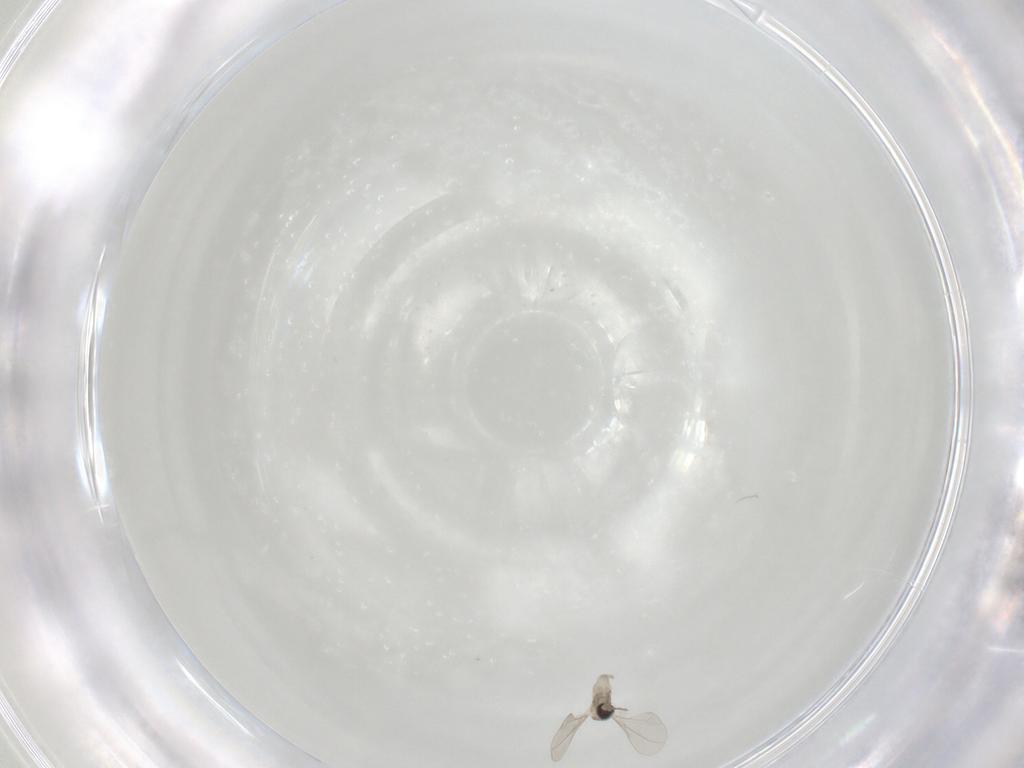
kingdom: Animalia
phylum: Arthropoda
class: Insecta
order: Diptera
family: Cecidomyiidae
